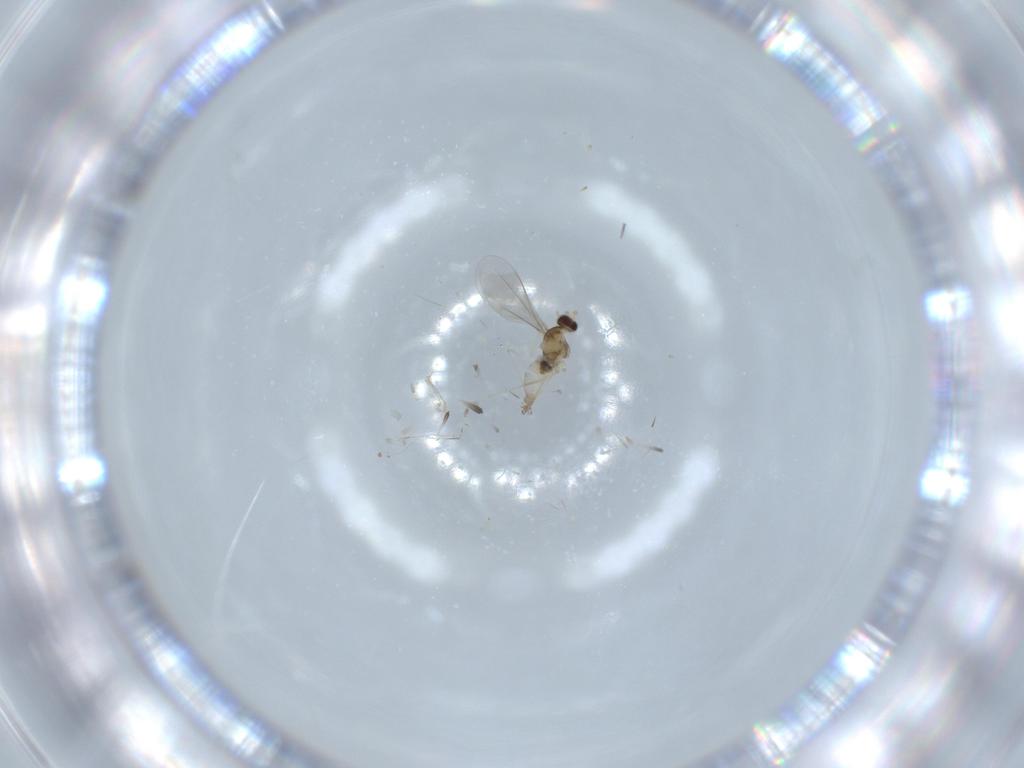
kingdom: Animalia
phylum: Arthropoda
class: Insecta
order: Diptera
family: Cecidomyiidae
